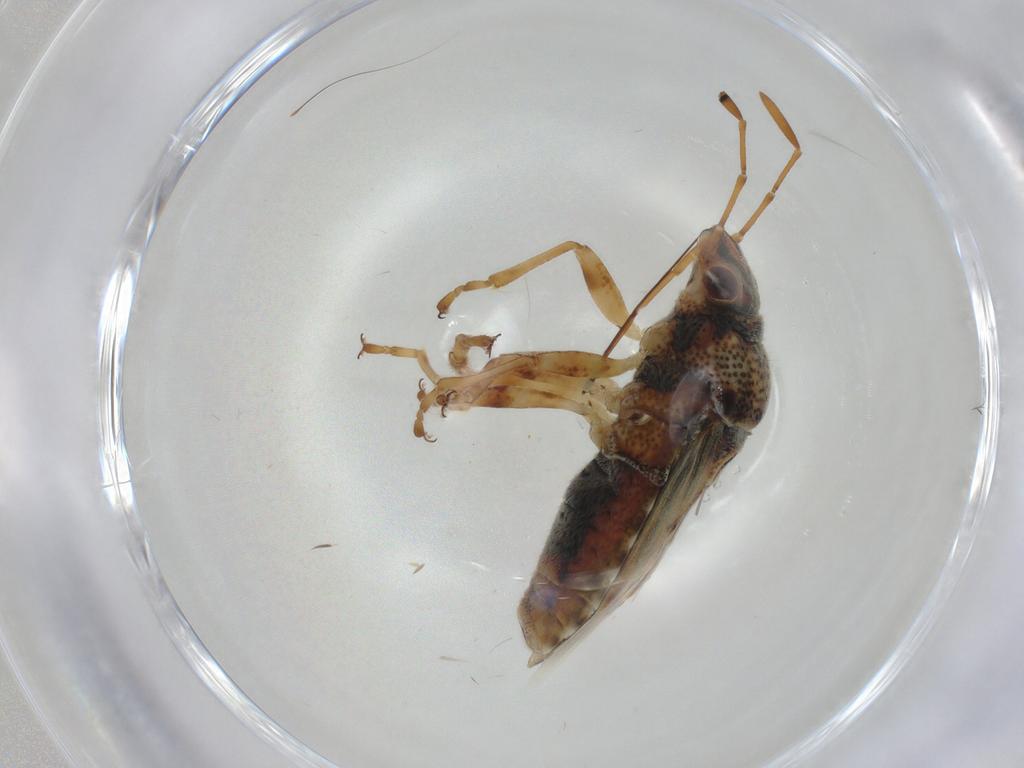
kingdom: Animalia
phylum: Arthropoda
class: Insecta
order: Hemiptera
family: Lygaeidae
